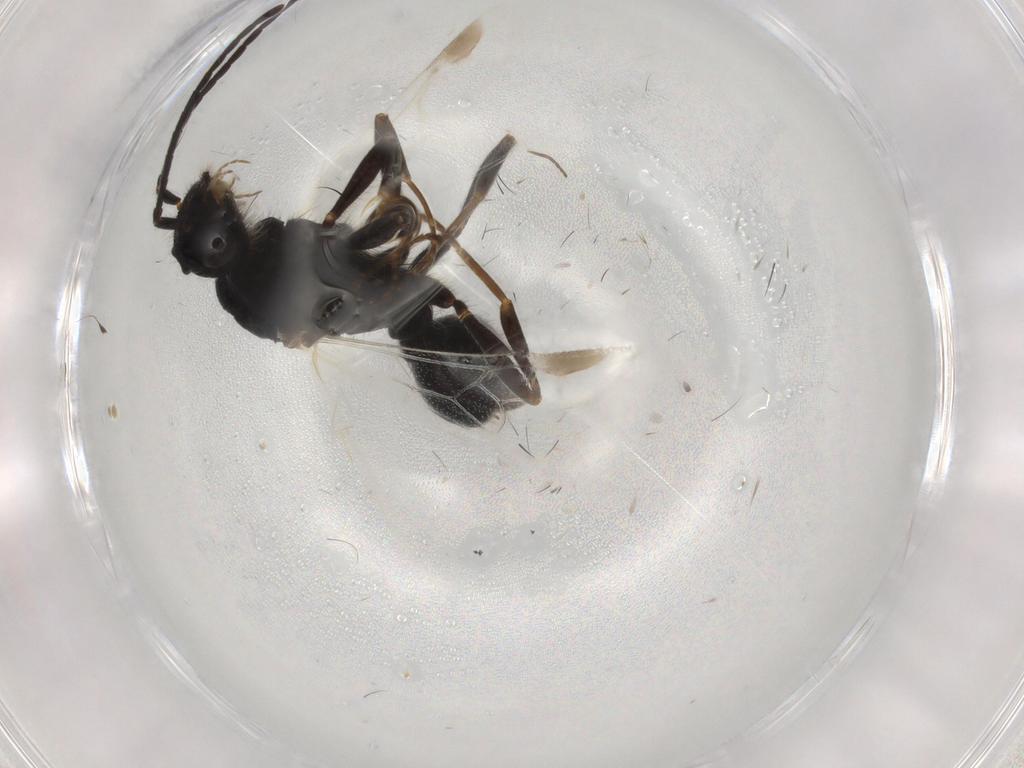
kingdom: Animalia
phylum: Arthropoda
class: Insecta
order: Hymenoptera
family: Formicidae
